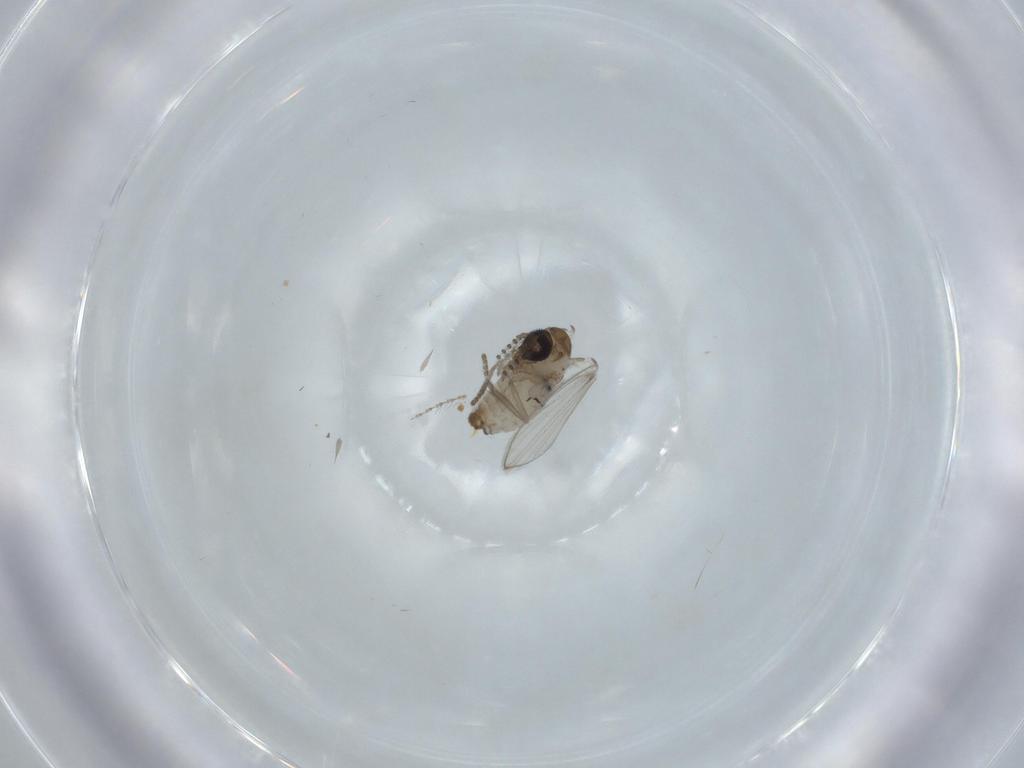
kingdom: Animalia
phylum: Arthropoda
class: Insecta
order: Diptera
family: Psychodidae
